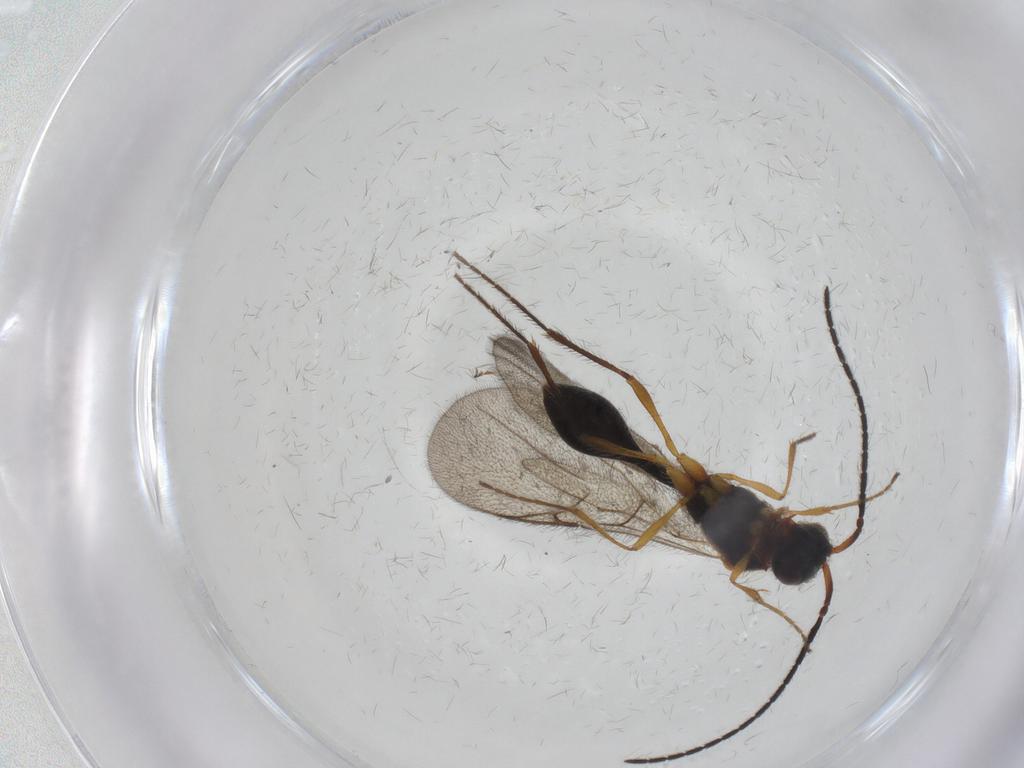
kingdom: Animalia
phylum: Arthropoda
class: Insecta
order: Hymenoptera
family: Diapriidae
